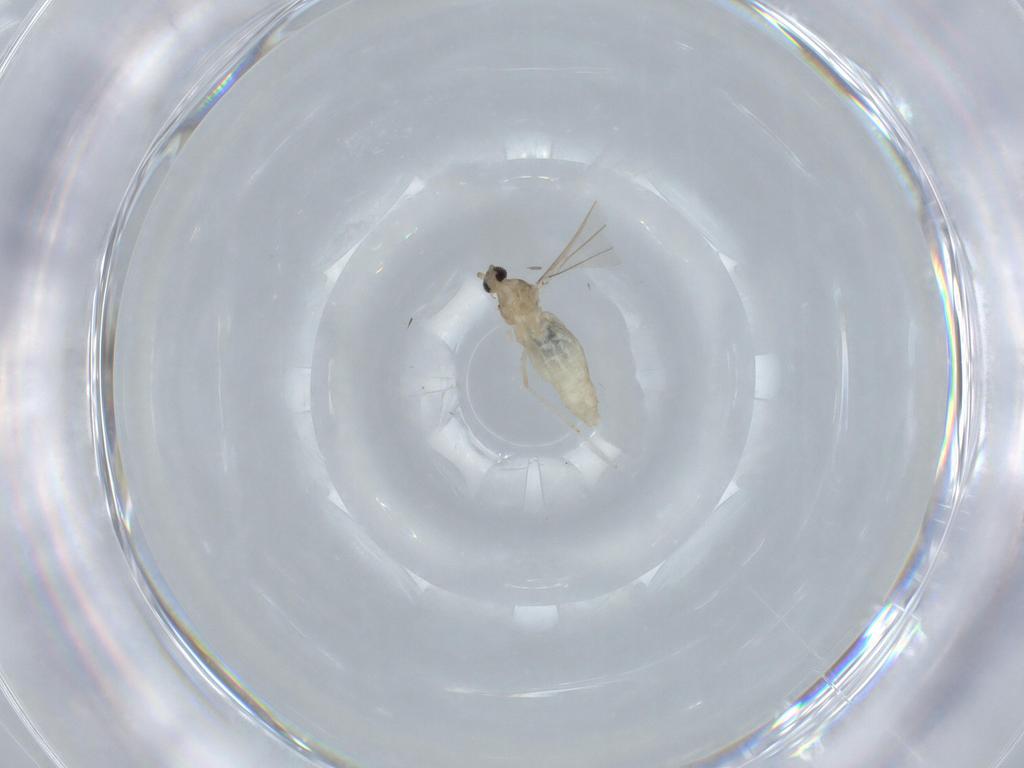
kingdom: Animalia
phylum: Arthropoda
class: Insecta
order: Diptera
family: Cecidomyiidae
